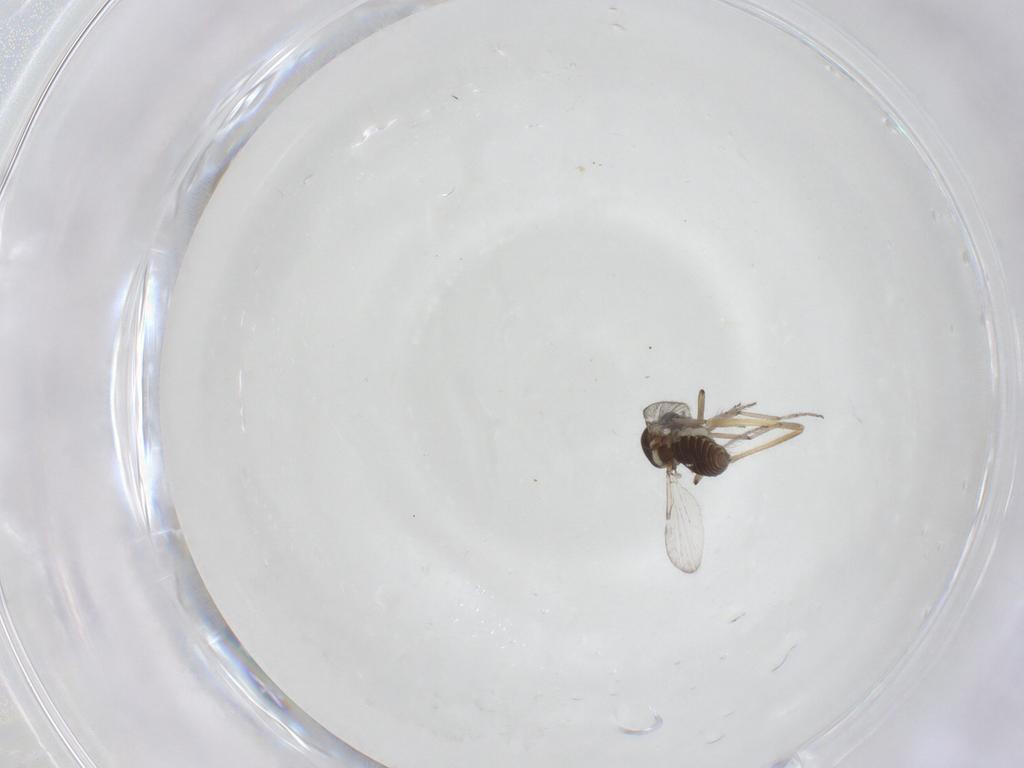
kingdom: Animalia
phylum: Arthropoda
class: Insecta
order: Diptera
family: Ceratopogonidae
